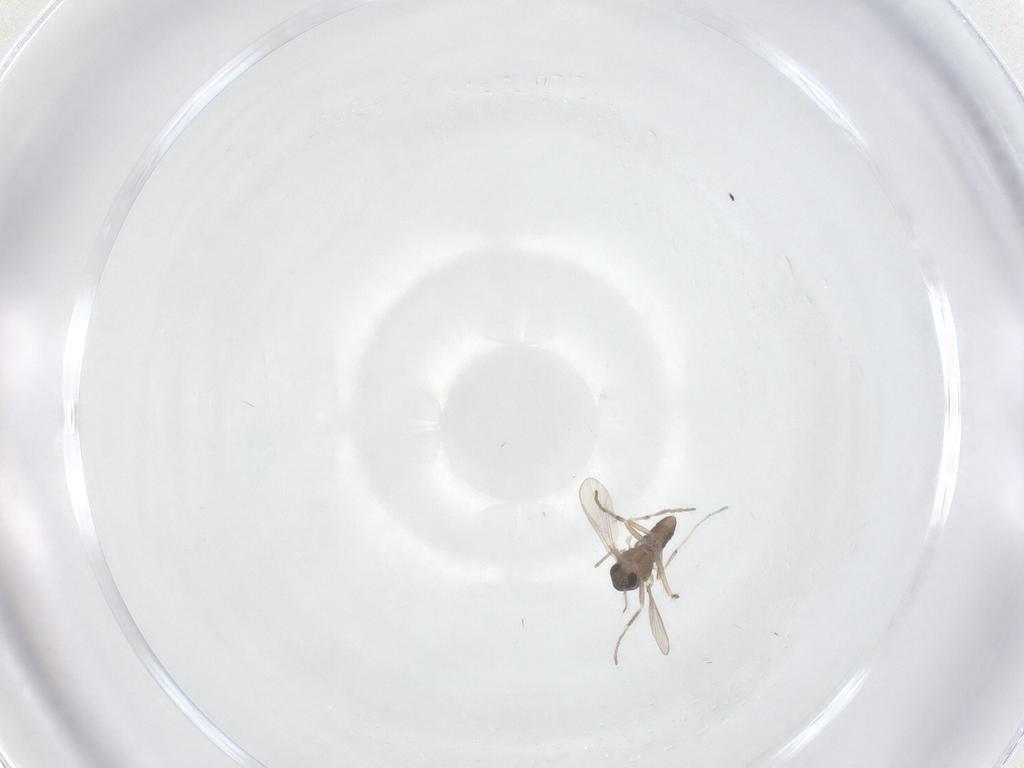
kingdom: Animalia
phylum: Arthropoda
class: Insecta
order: Diptera
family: Chironomidae
